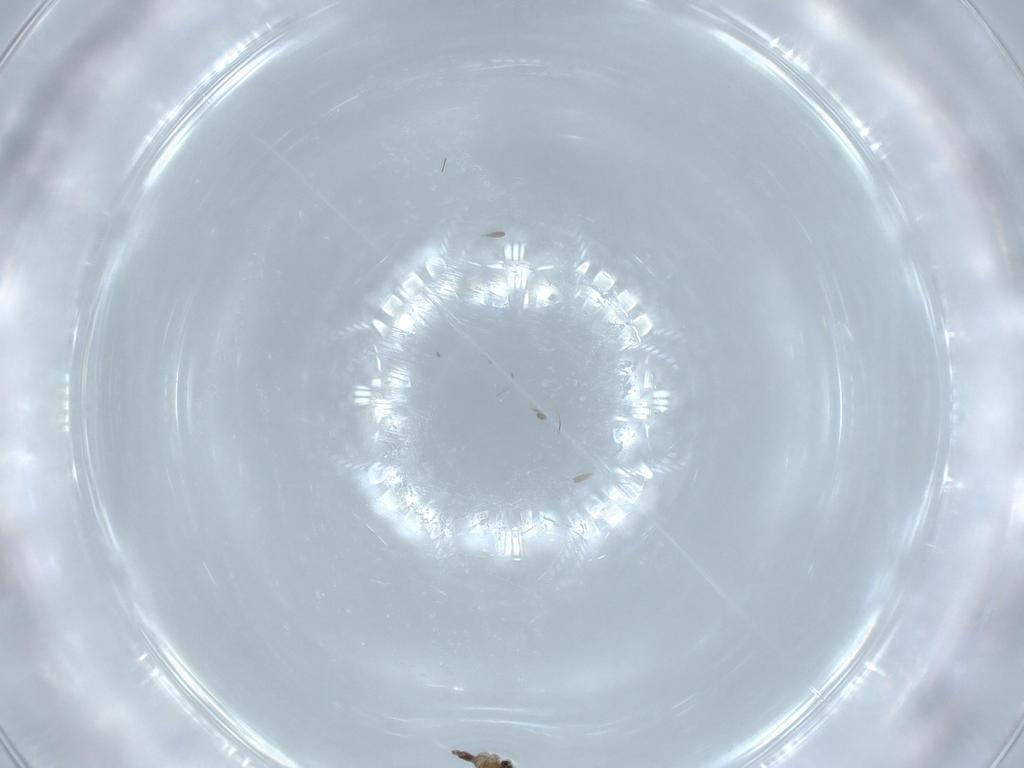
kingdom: Animalia
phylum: Arthropoda
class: Insecta
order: Diptera
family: Cecidomyiidae
